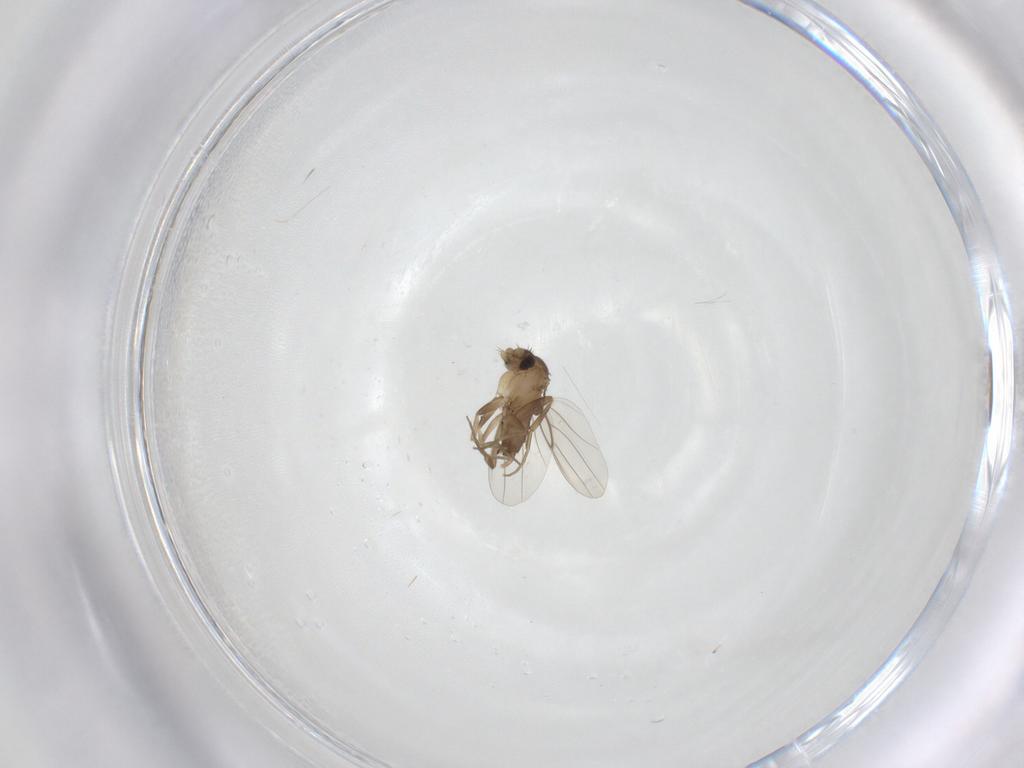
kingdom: Animalia
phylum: Arthropoda
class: Insecta
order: Diptera
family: Phoridae
